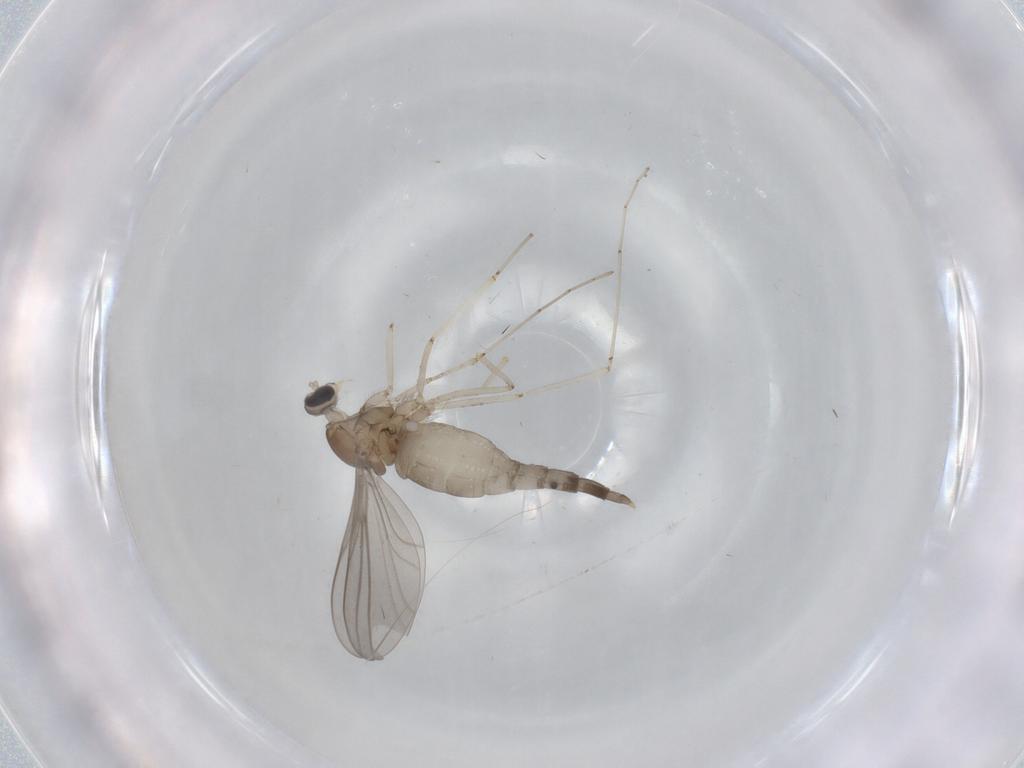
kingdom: Animalia
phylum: Arthropoda
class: Insecta
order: Diptera
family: Cecidomyiidae
